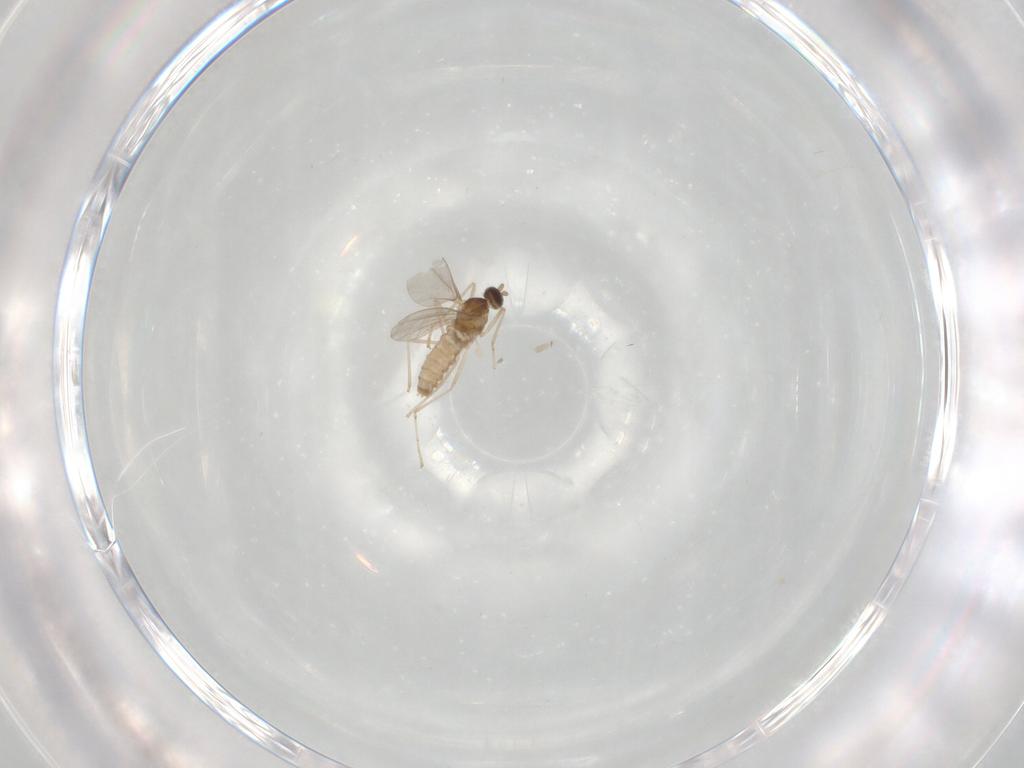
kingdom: Animalia
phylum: Arthropoda
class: Insecta
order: Diptera
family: Cecidomyiidae
